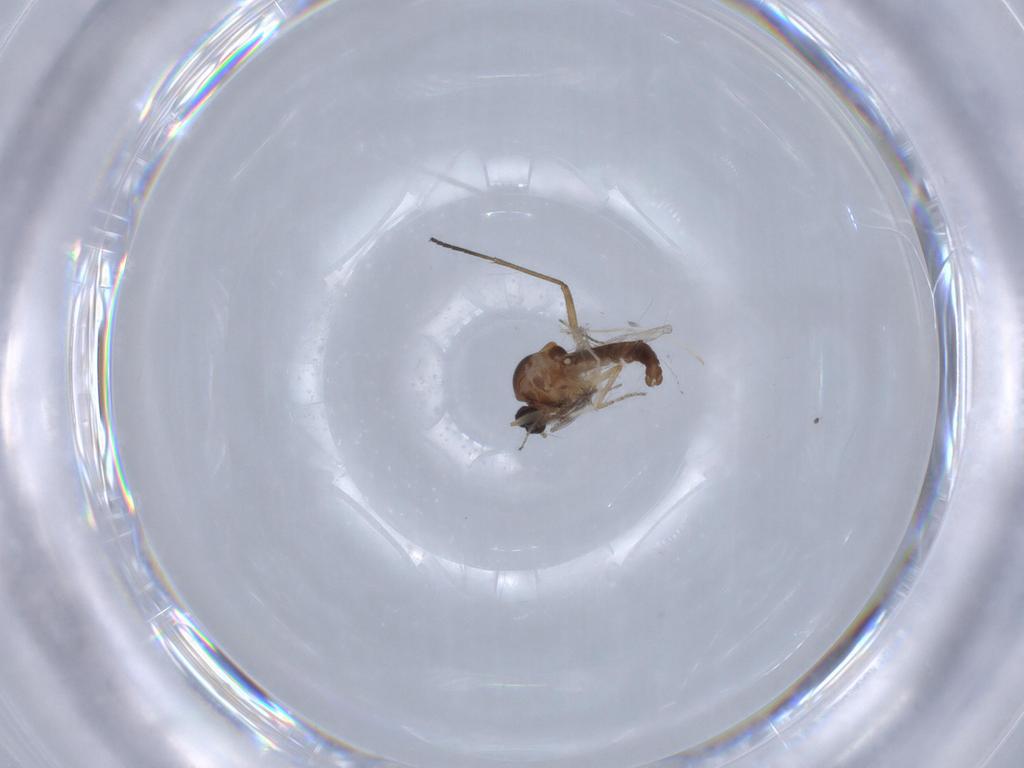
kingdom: Animalia
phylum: Arthropoda
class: Insecta
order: Diptera
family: Ceratopogonidae
